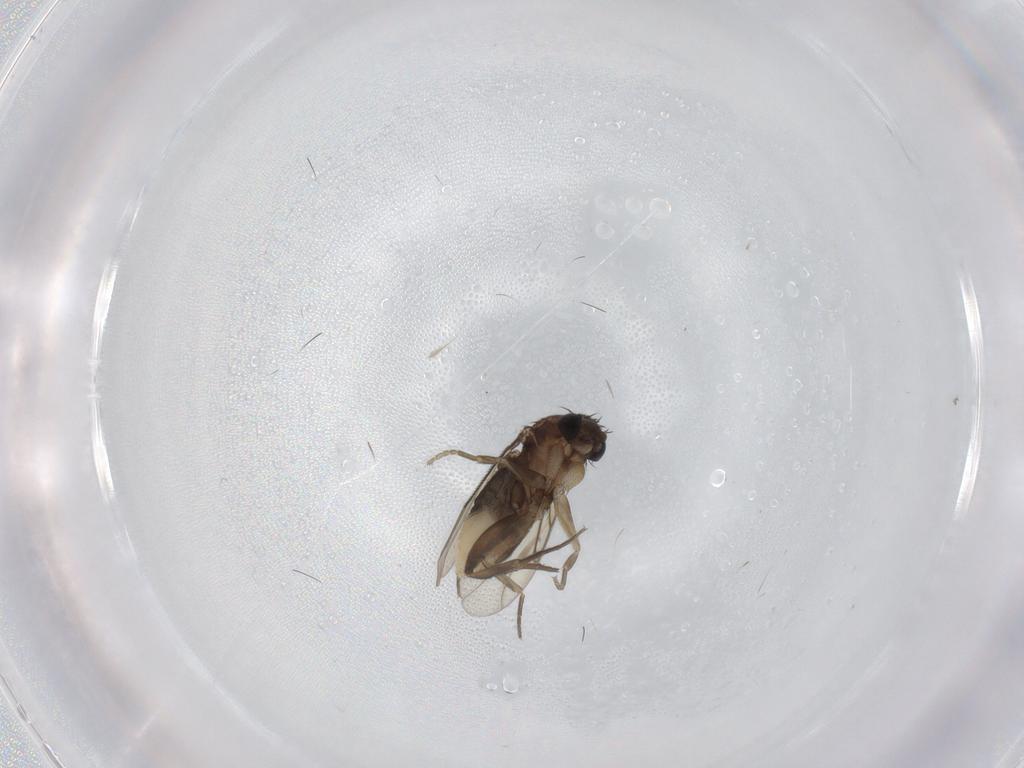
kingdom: Animalia
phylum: Arthropoda
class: Insecta
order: Diptera
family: Phoridae
